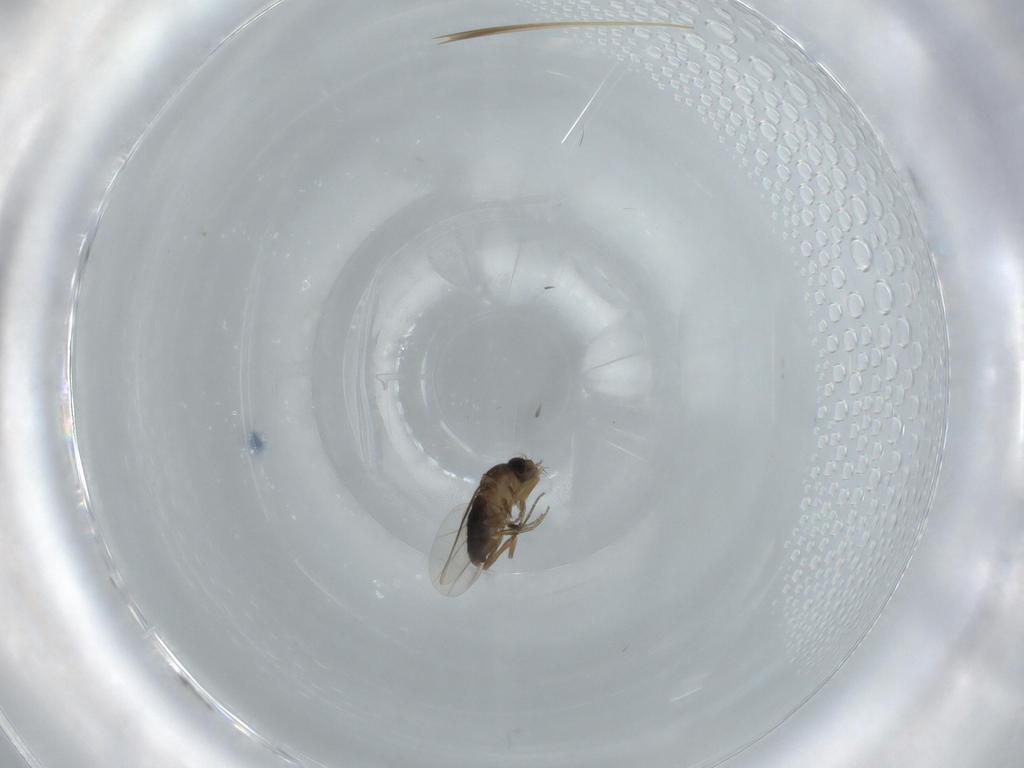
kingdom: Animalia
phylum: Arthropoda
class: Insecta
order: Diptera
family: Phoridae
